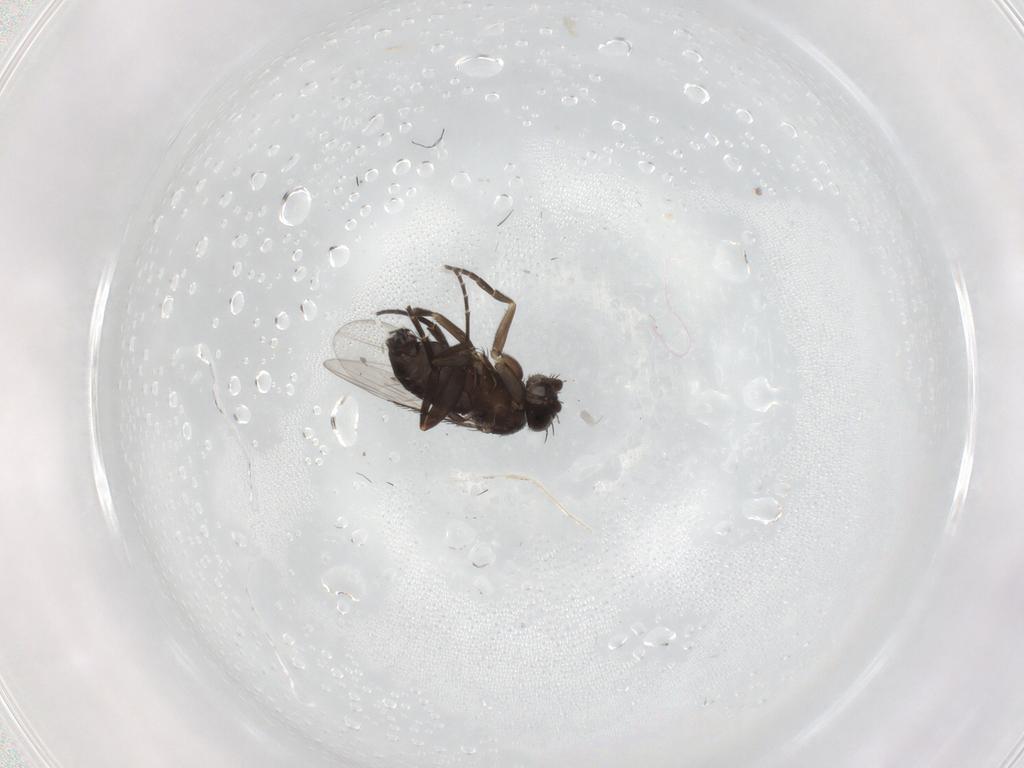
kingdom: Animalia
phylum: Arthropoda
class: Insecta
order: Diptera
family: Phoridae
